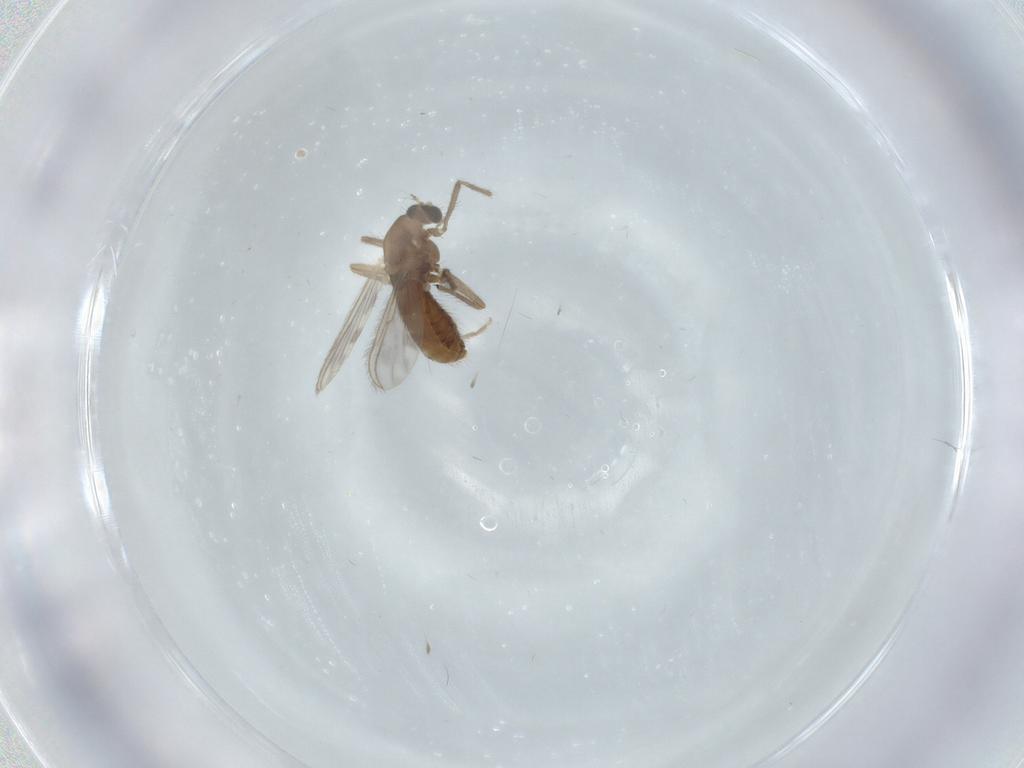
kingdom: Animalia
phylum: Arthropoda
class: Insecta
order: Diptera
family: Chironomidae
